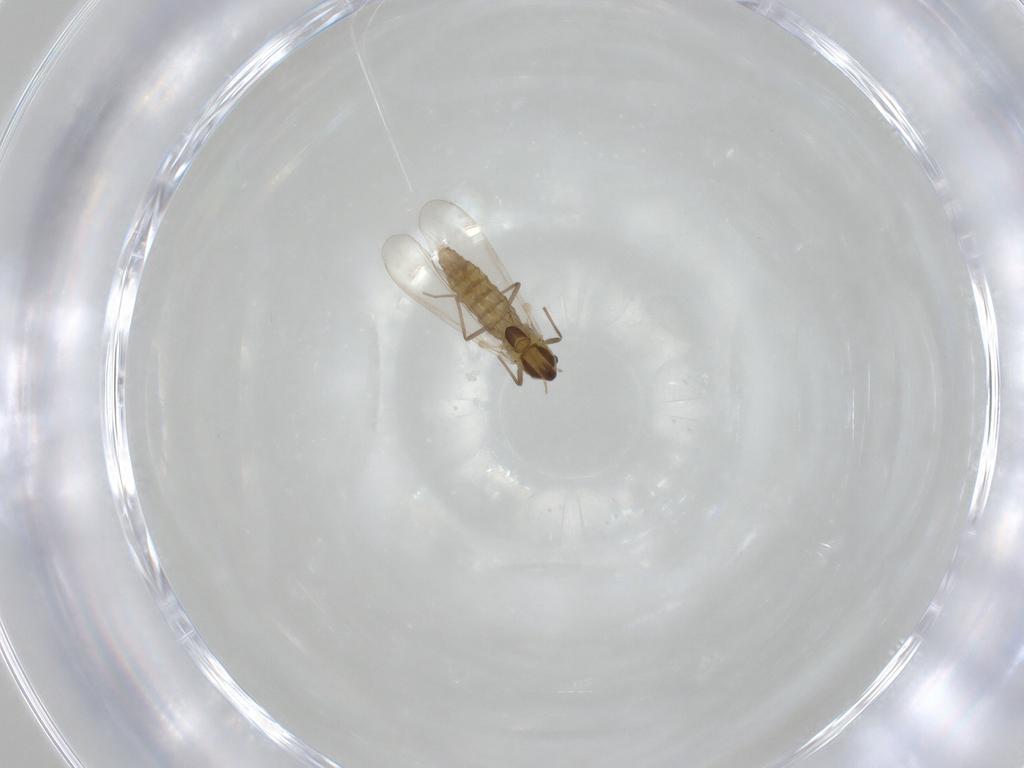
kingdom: Animalia
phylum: Arthropoda
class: Insecta
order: Diptera
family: Chironomidae
